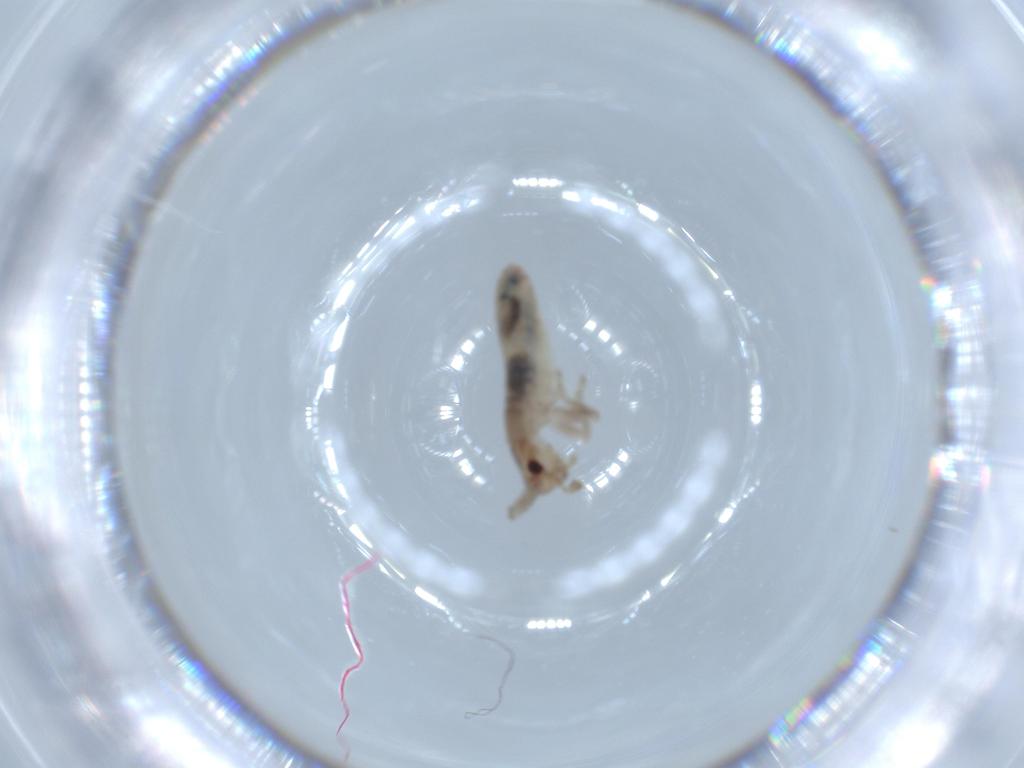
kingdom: Animalia
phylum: Arthropoda
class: Insecta
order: Orthoptera
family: Mogoplistidae
